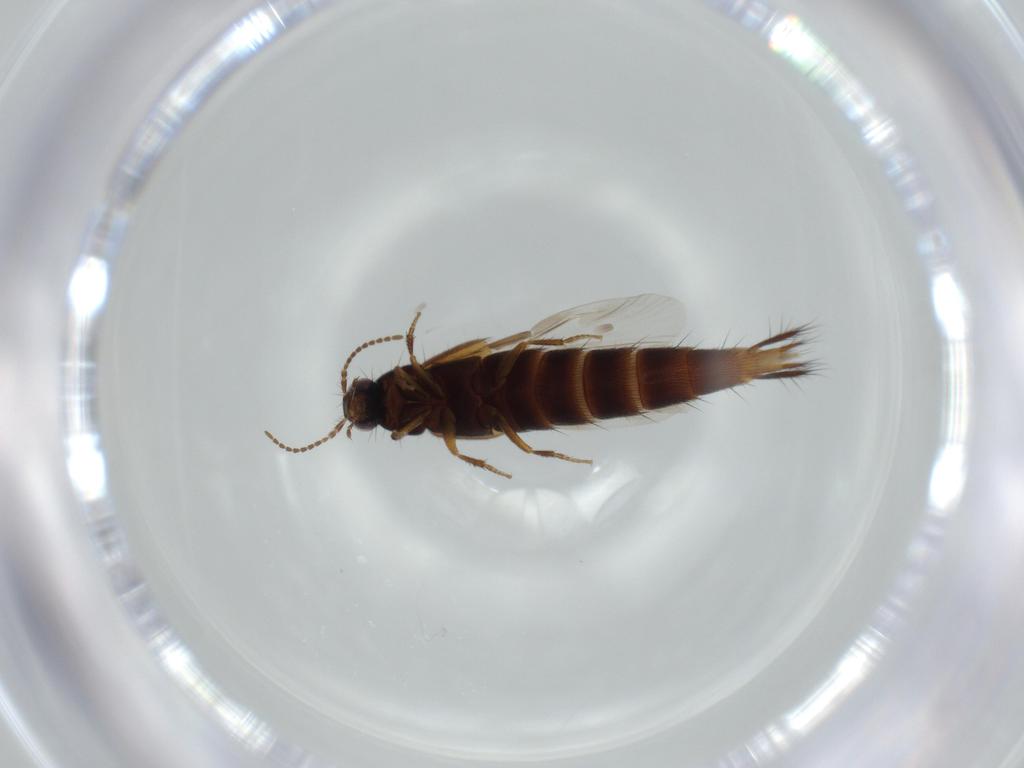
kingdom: Animalia
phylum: Arthropoda
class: Insecta
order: Coleoptera
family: Staphylinidae
